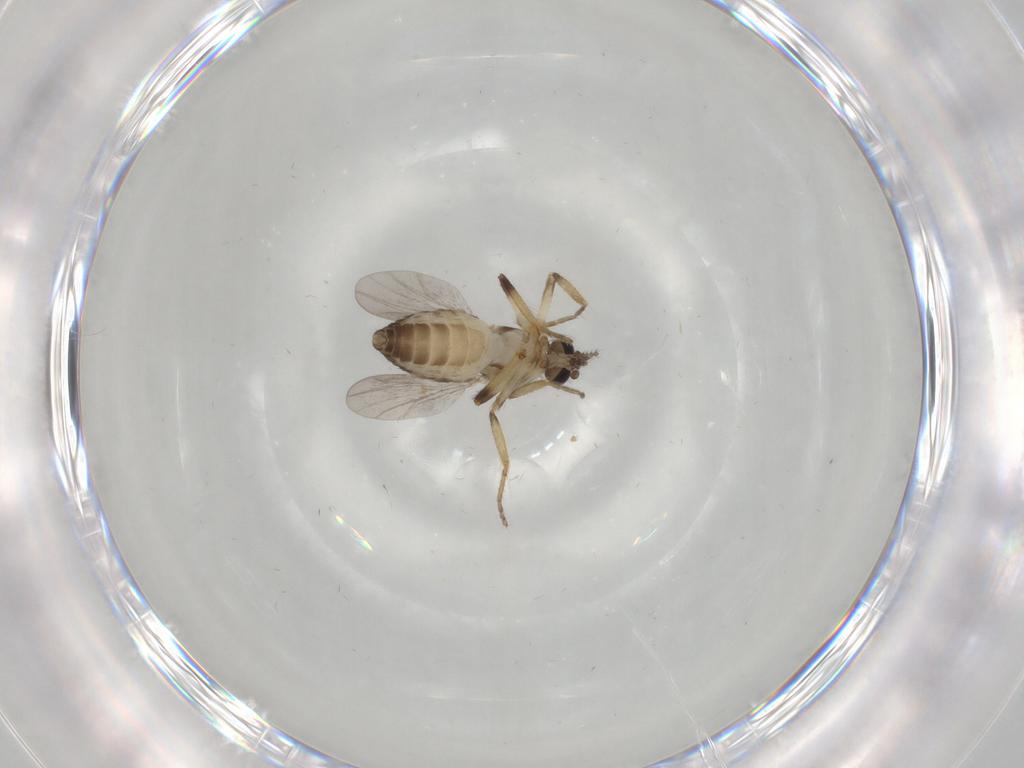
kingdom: Animalia
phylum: Arthropoda
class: Insecta
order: Diptera
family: Ceratopogonidae
